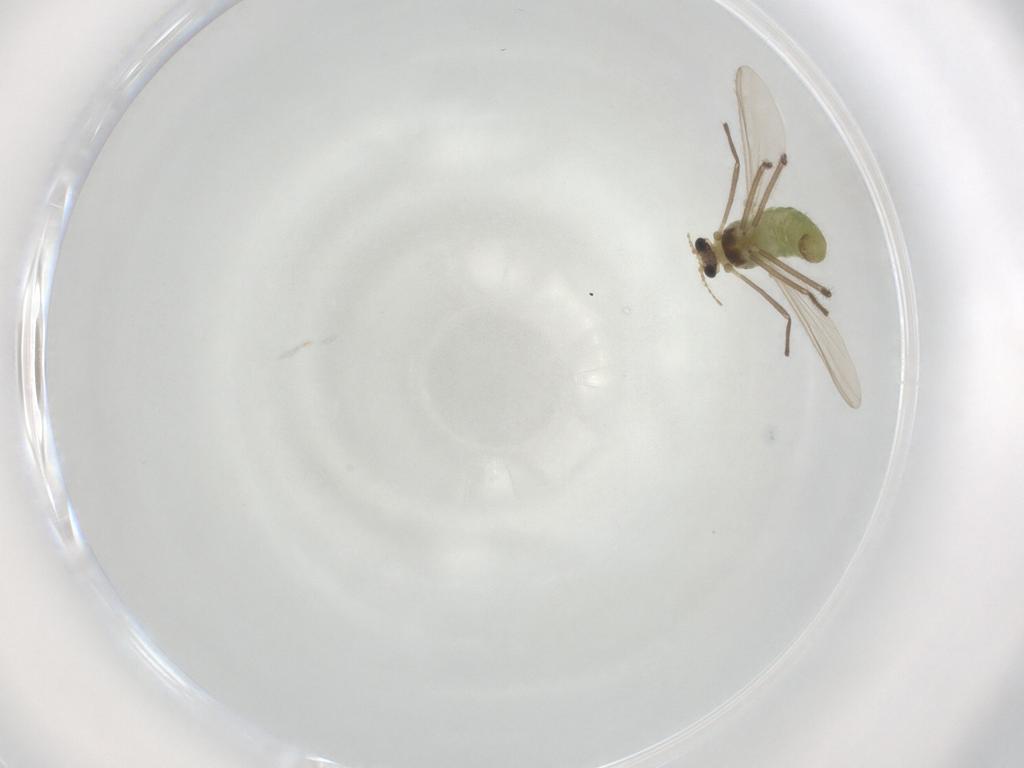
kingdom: Animalia
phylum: Arthropoda
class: Insecta
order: Diptera
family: Chironomidae
